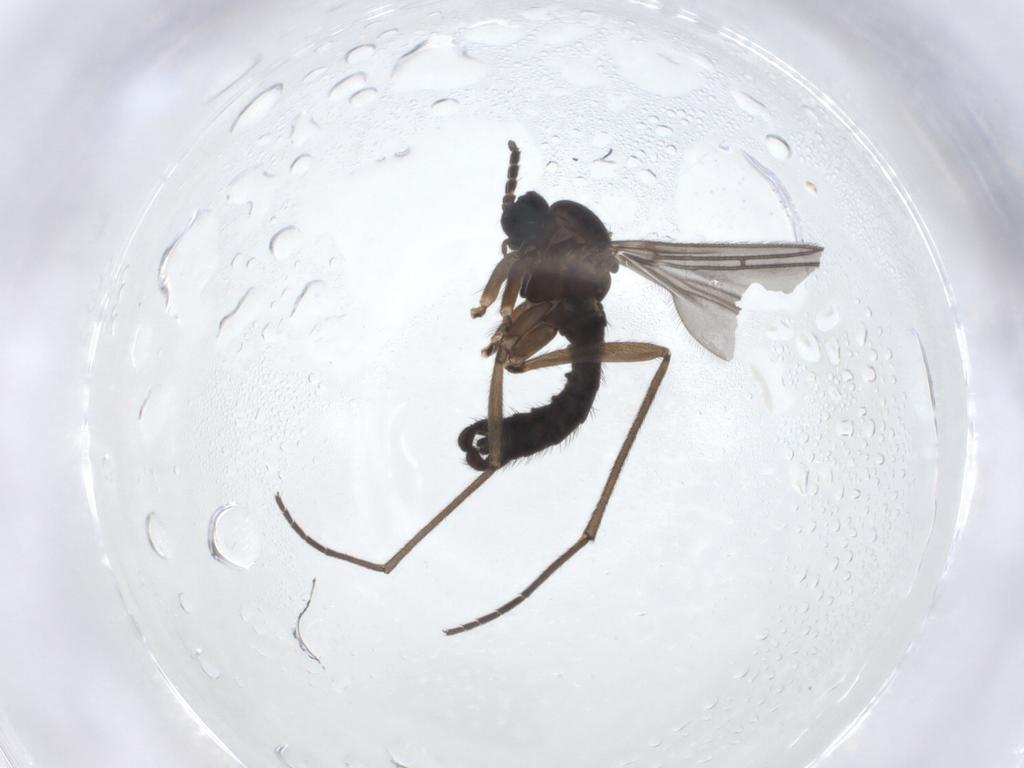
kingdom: Animalia
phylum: Arthropoda
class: Insecta
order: Diptera
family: Sciaridae
